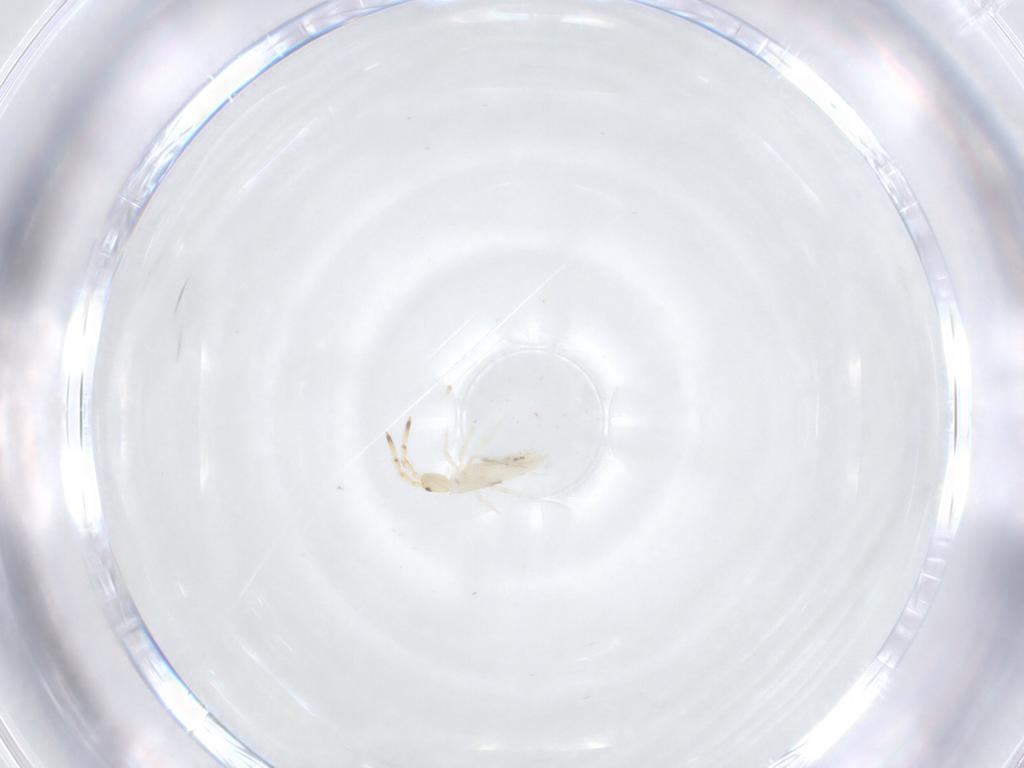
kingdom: Animalia
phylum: Arthropoda
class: Collembola
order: Entomobryomorpha
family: Entomobryidae
